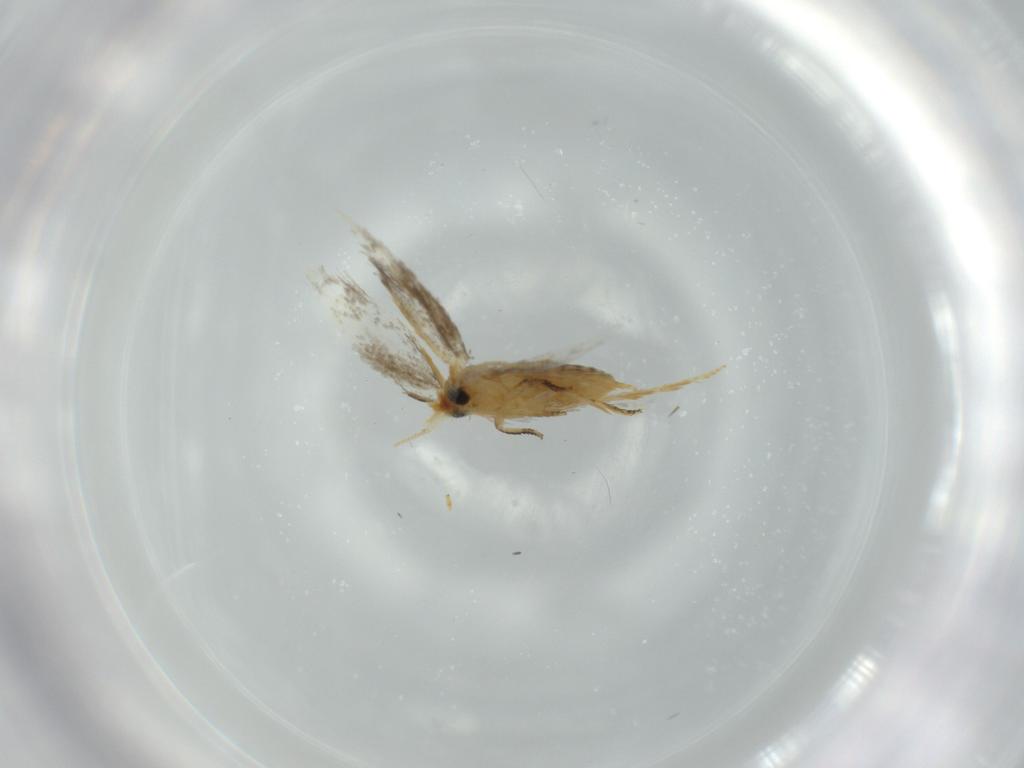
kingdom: Animalia
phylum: Arthropoda
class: Insecta
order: Lepidoptera
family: Nepticulidae
